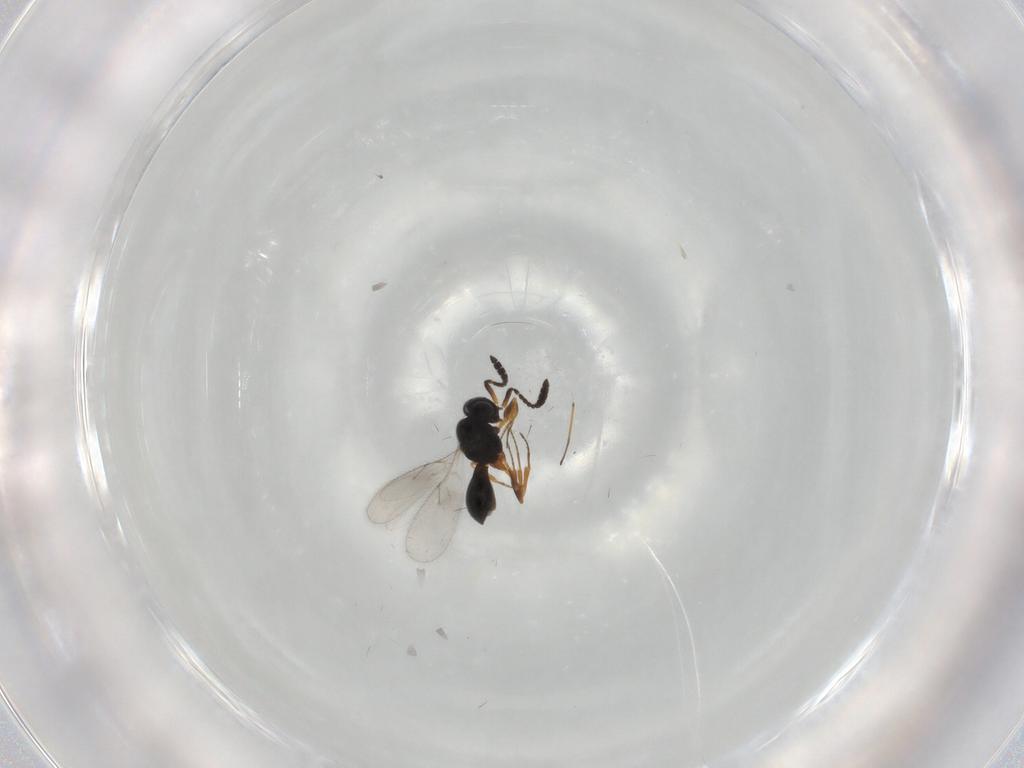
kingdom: Animalia
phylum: Arthropoda
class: Insecta
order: Hymenoptera
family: Scelionidae
